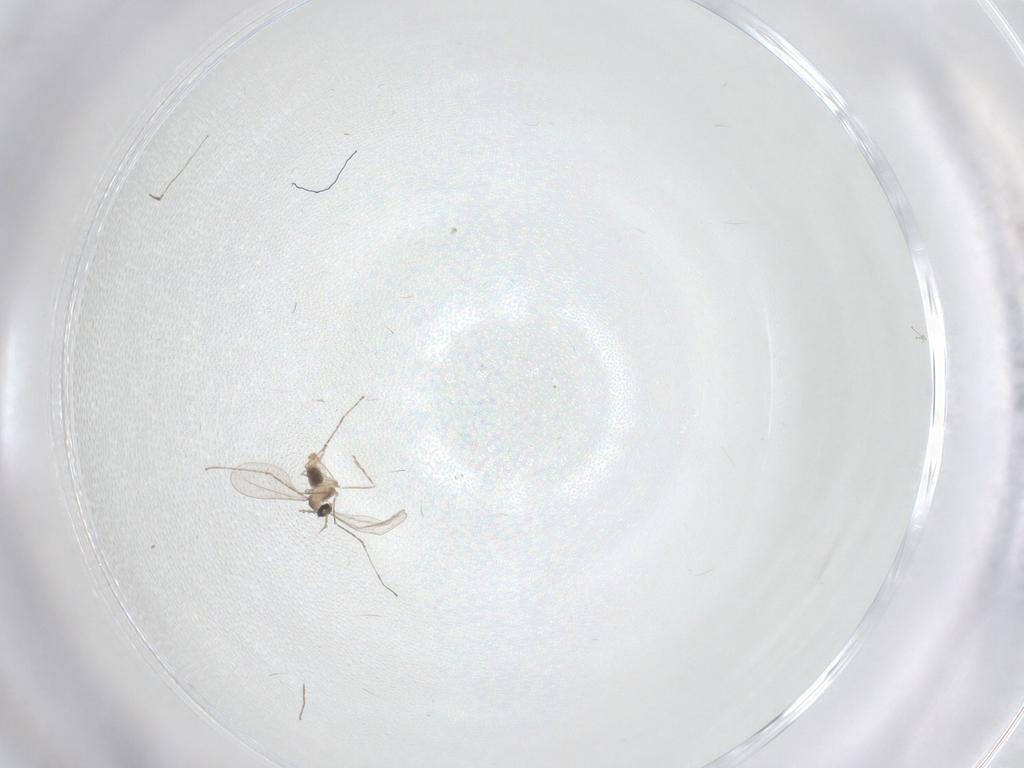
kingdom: Animalia
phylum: Arthropoda
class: Insecta
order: Diptera
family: Cecidomyiidae
